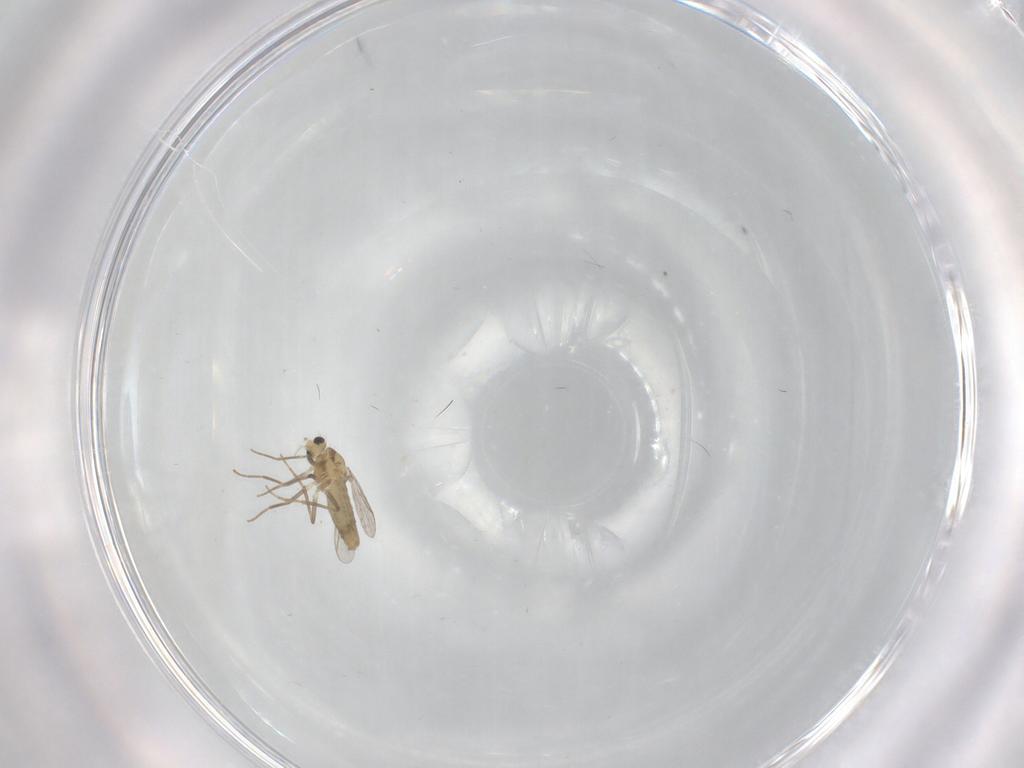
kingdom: Animalia
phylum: Arthropoda
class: Insecta
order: Diptera
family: Chironomidae
